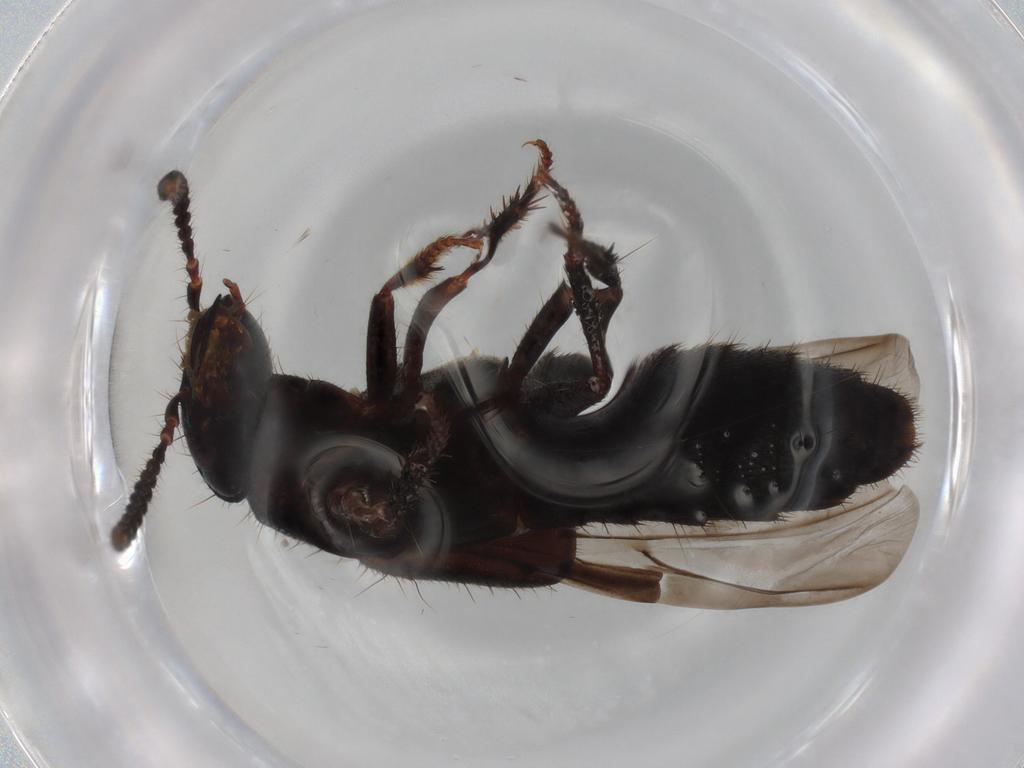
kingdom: Animalia
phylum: Arthropoda
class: Insecta
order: Coleoptera
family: Anthribidae
